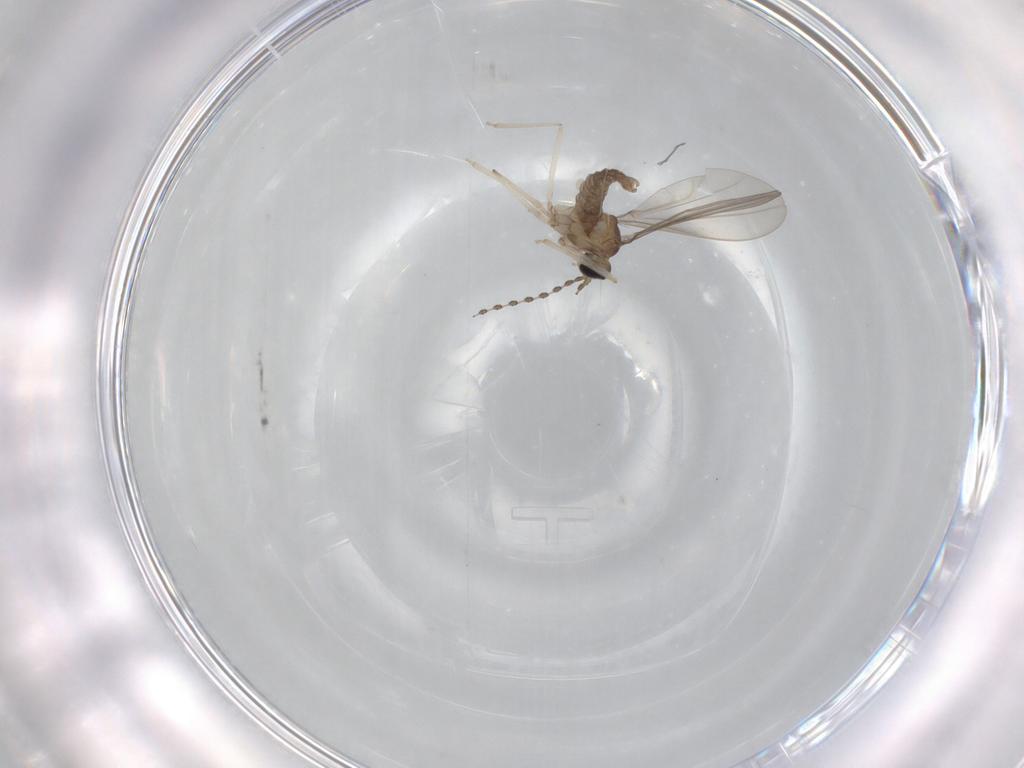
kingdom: Animalia
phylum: Arthropoda
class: Insecta
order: Diptera
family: Cecidomyiidae
